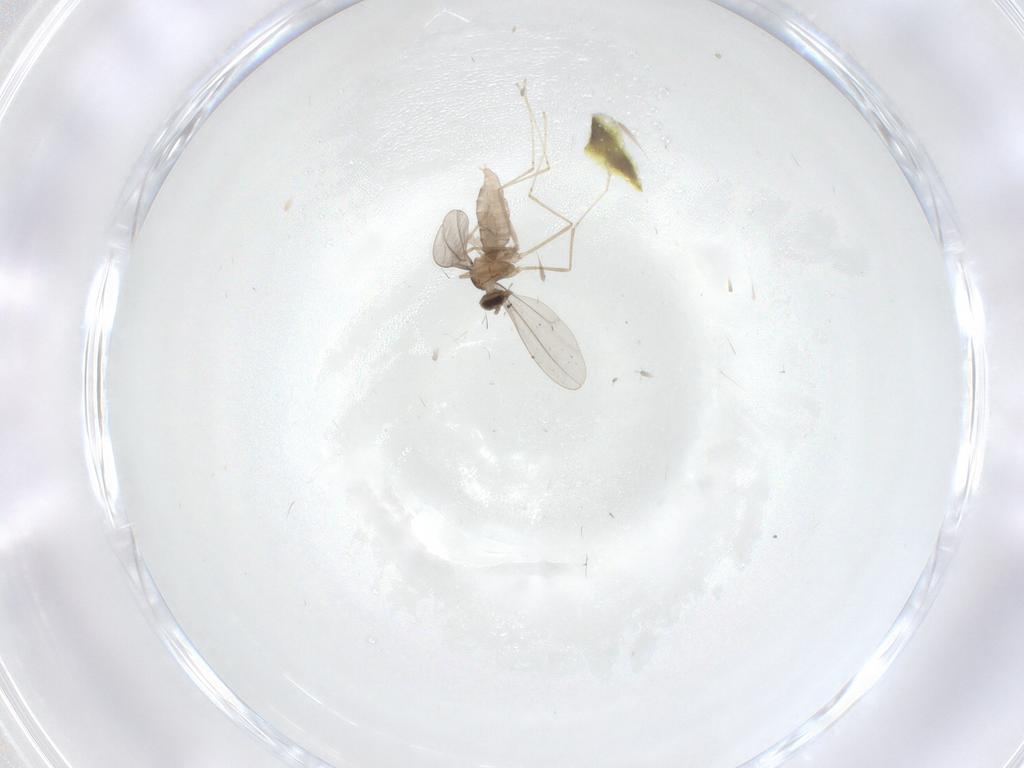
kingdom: Animalia
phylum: Arthropoda
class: Insecta
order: Diptera
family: Cecidomyiidae
